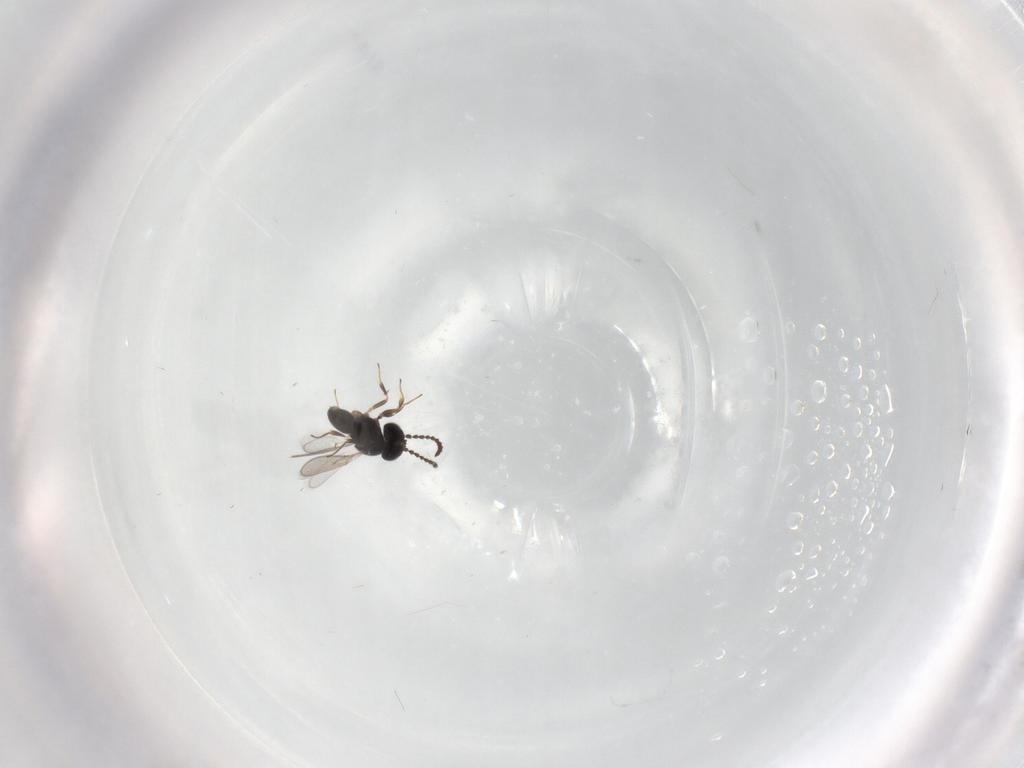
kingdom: Animalia
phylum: Arthropoda
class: Insecta
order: Hymenoptera
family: Scelionidae
